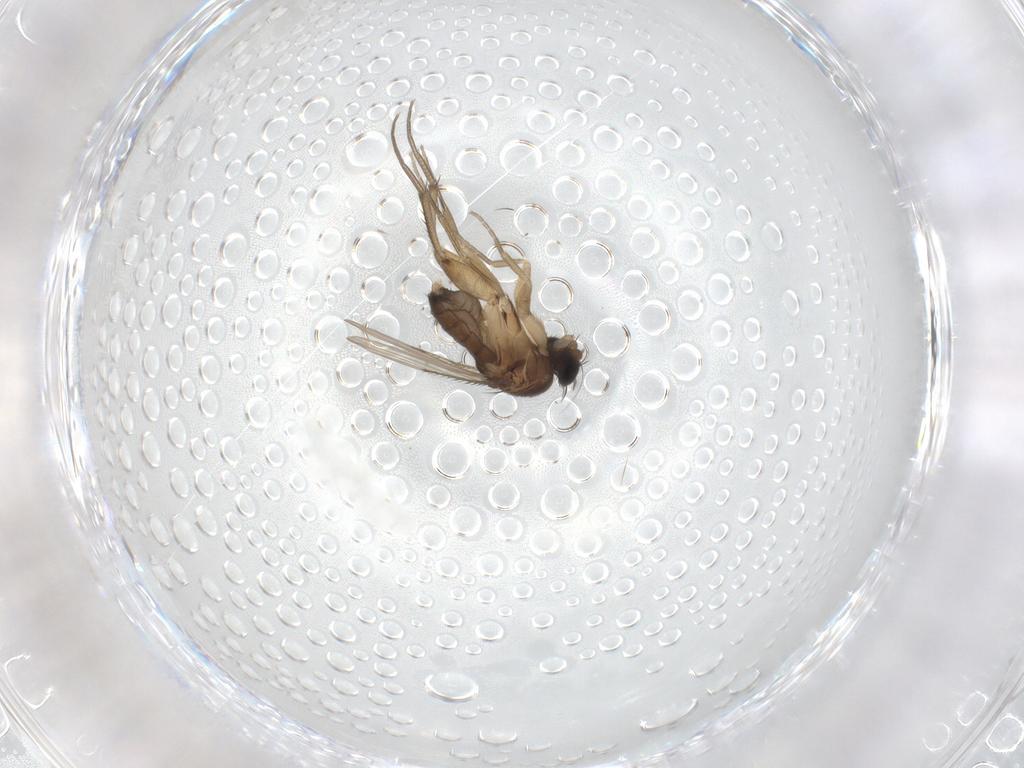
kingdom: Animalia
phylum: Arthropoda
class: Insecta
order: Diptera
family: Phoridae
